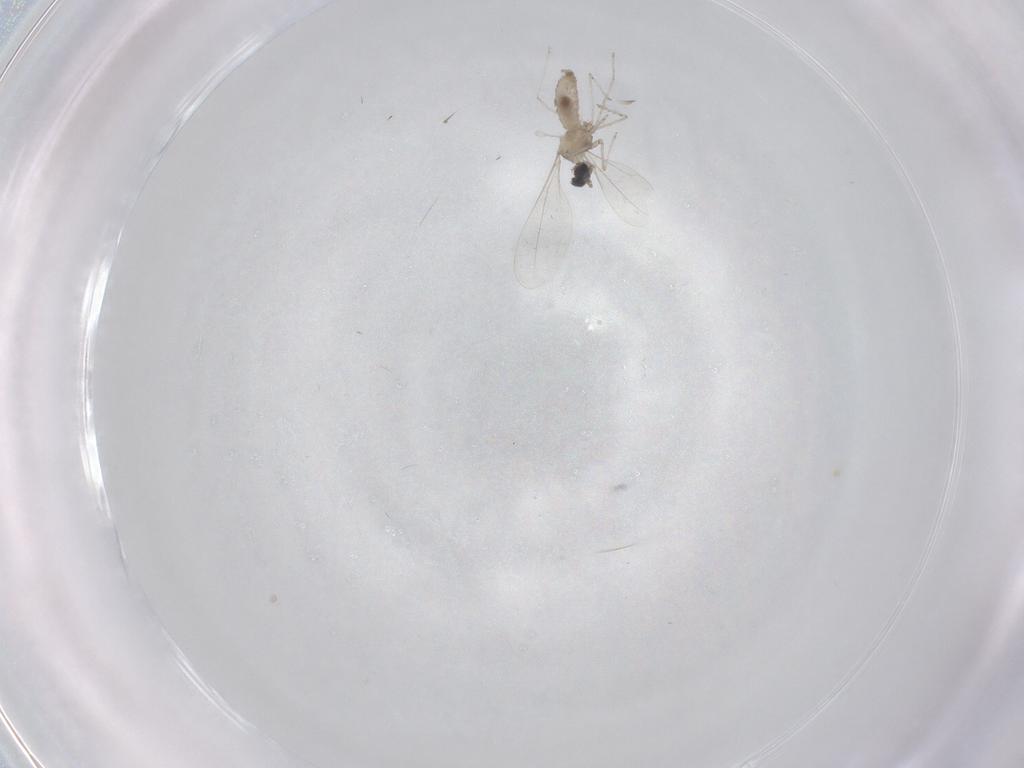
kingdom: Animalia
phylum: Arthropoda
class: Insecta
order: Diptera
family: Cecidomyiidae
